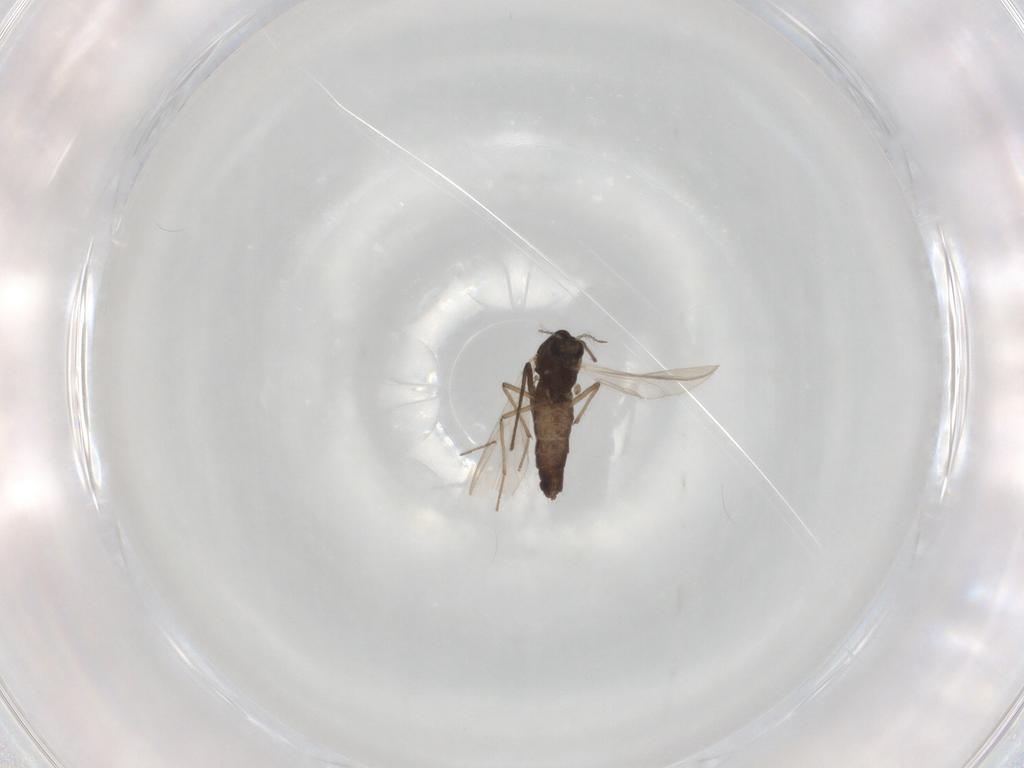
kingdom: Animalia
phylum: Arthropoda
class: Insecta
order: Diptera
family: Chironomidae
